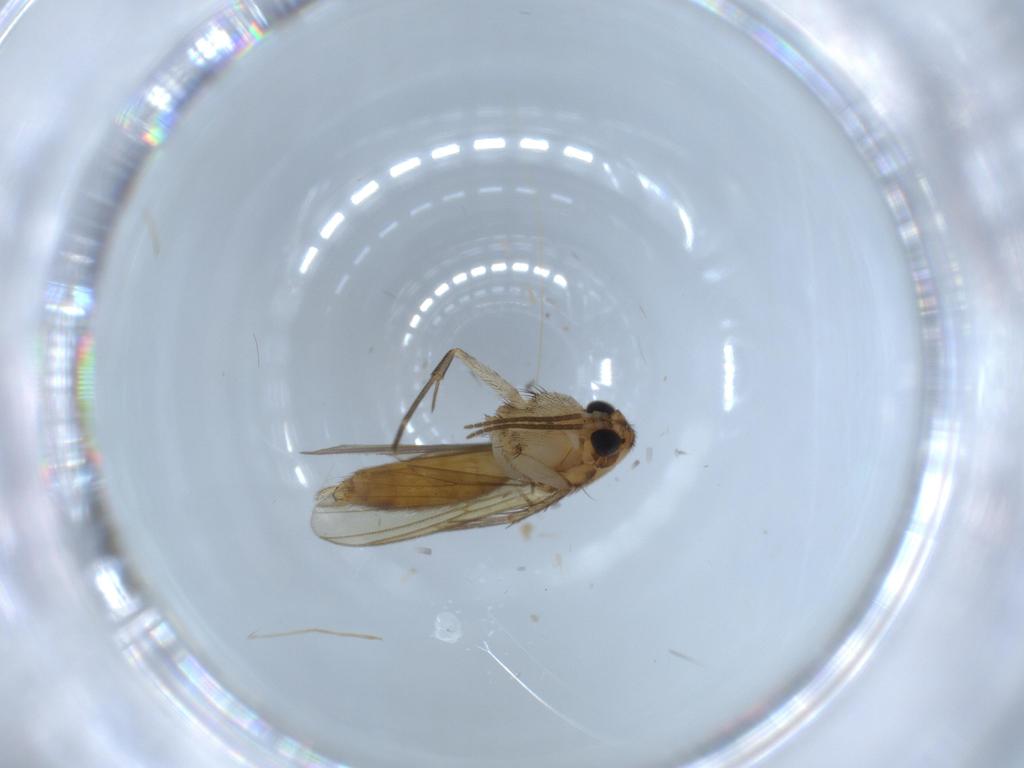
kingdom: Animalia
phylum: Arthropoda
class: Insecta
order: Diptera
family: Mycetophilidae
